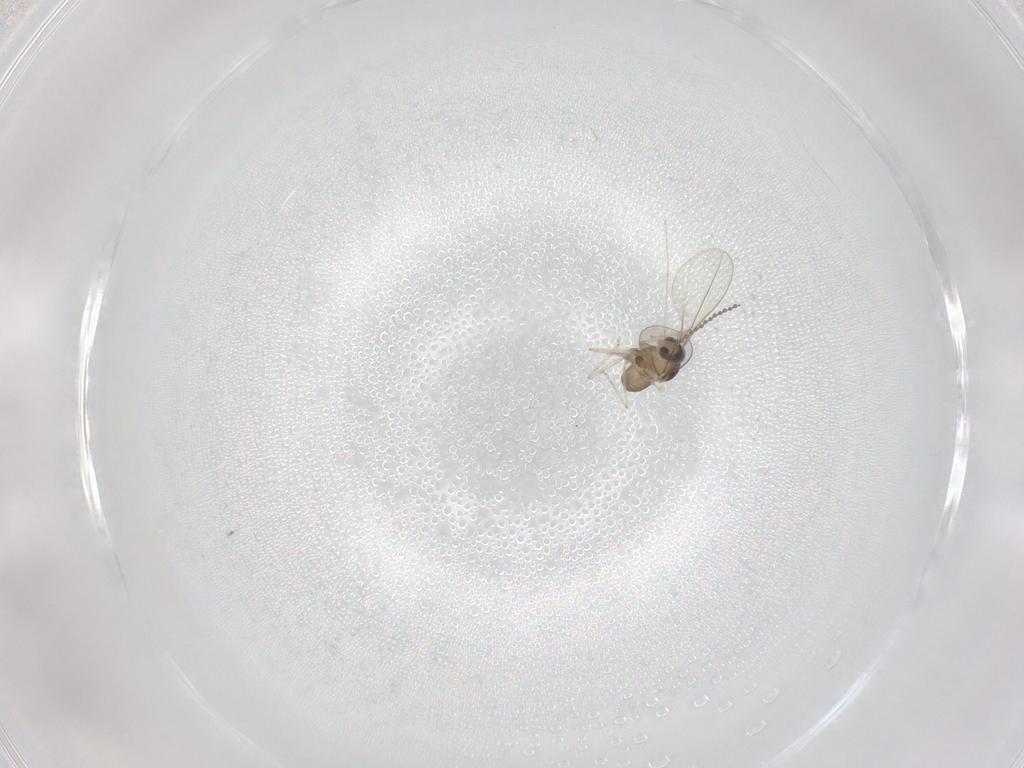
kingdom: Animalia
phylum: Arthropoda
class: Insecta
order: Diptera
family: Cecidomyiidae
